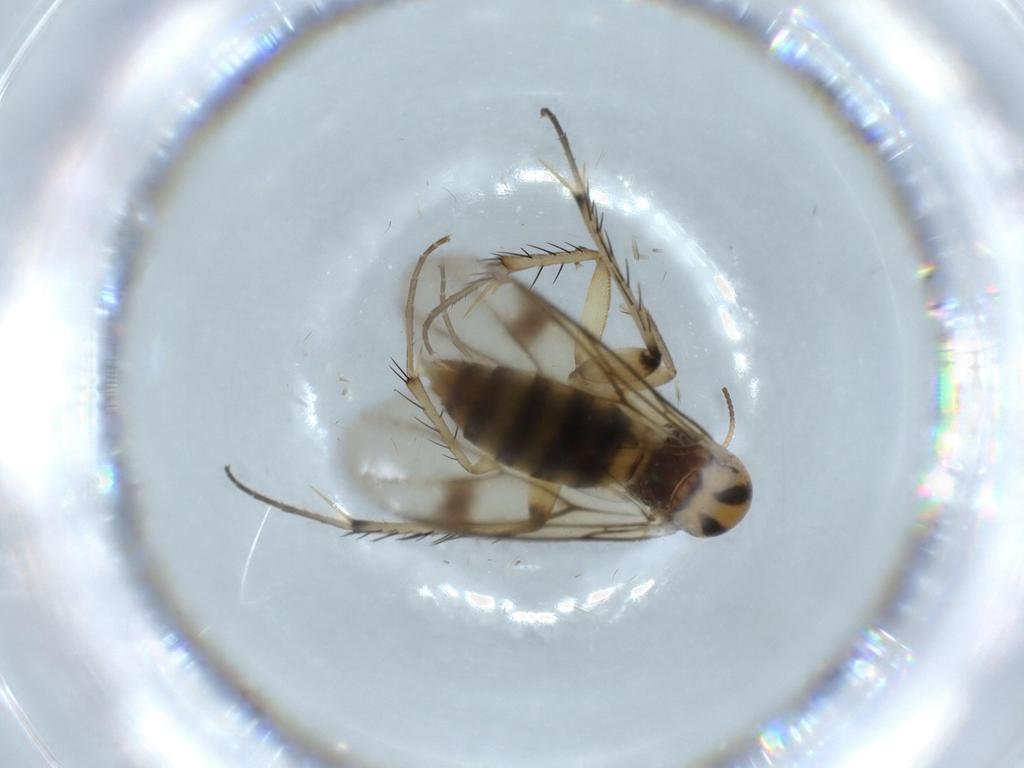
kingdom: Animalia
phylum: Arthropoda
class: Insecta
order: Diptera
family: Mycetophilidae
